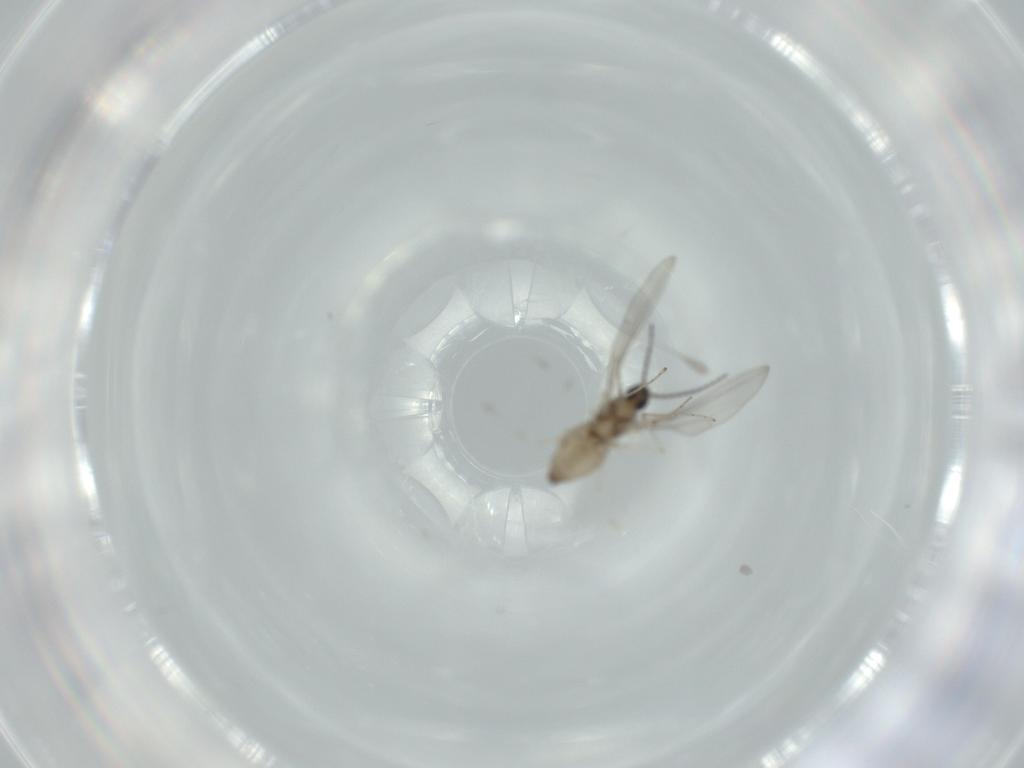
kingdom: Animalia
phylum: Arthropoda
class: Insecta
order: Diptera
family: Cecidomyiidae
